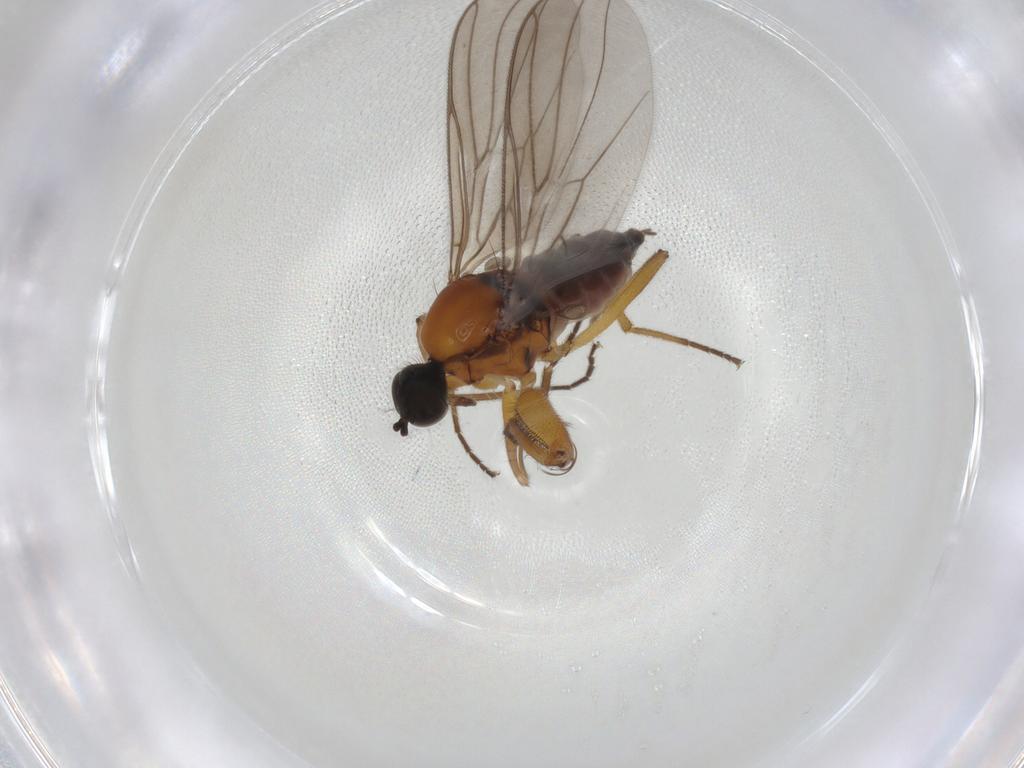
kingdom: Animalia
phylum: Arthropoda
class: Insecta
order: Diptera
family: Hybotidae
